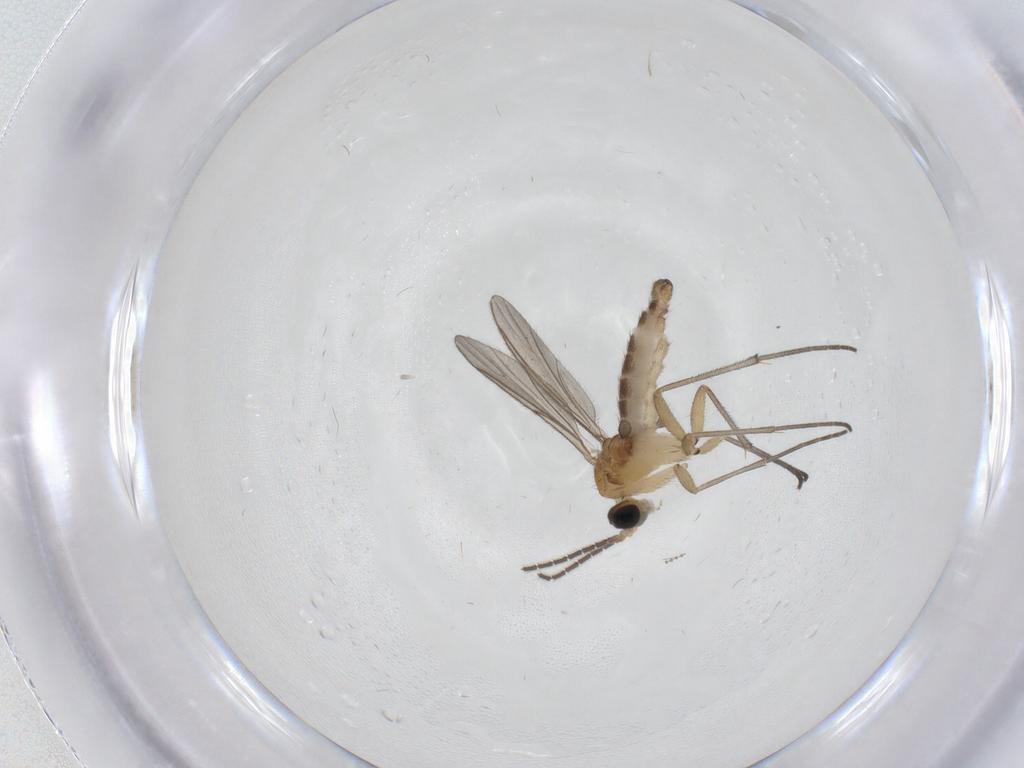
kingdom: Animalia
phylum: Arthropoda
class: Insecta
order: Diptera
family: Sciaridae
